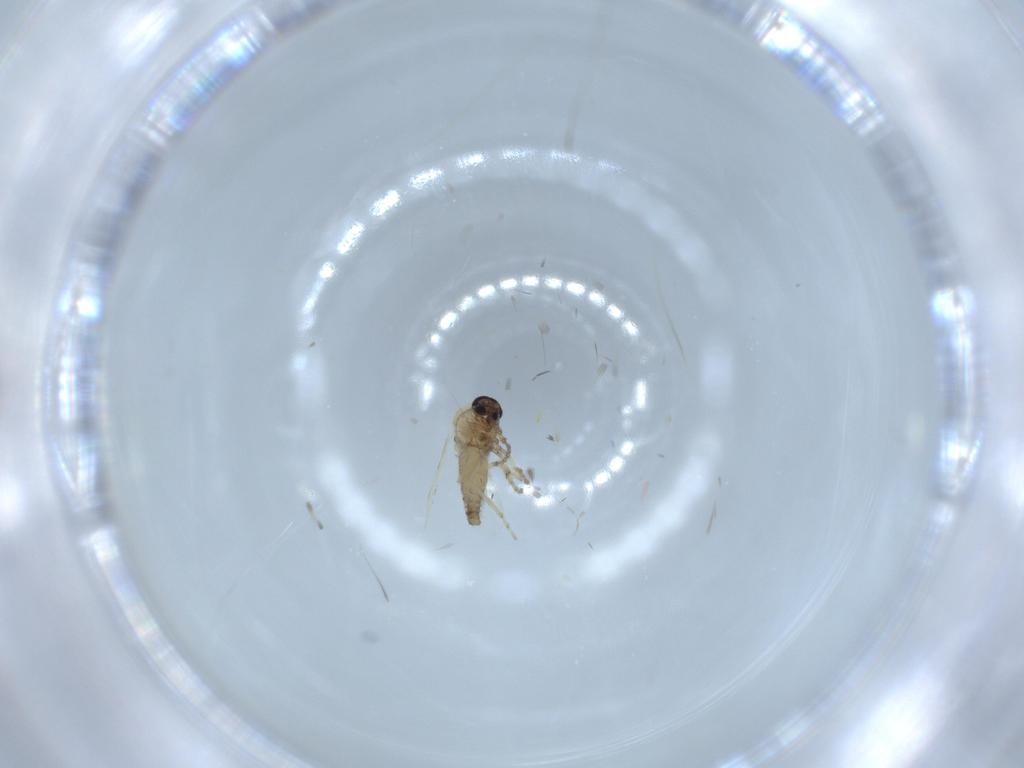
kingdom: Animalia
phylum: Arthropoda
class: Insecta
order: Diptera
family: Ceratopogonidae
